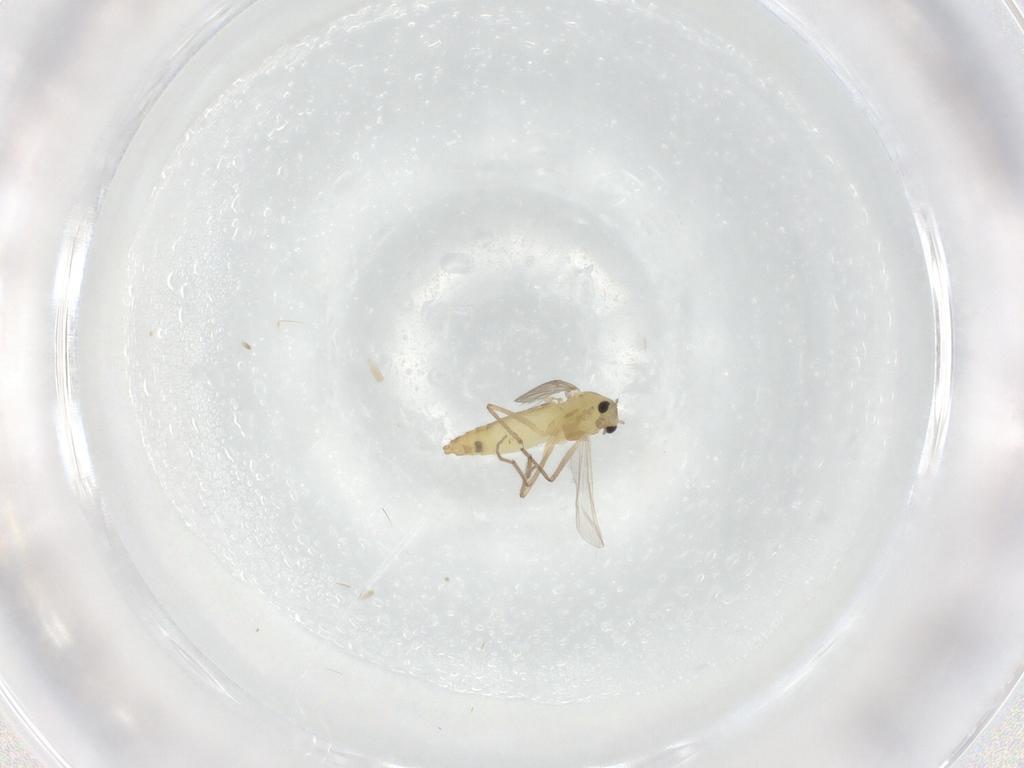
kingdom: Animalia
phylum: Arthropoda
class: Insecta
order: Diptera
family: Chironomidae
